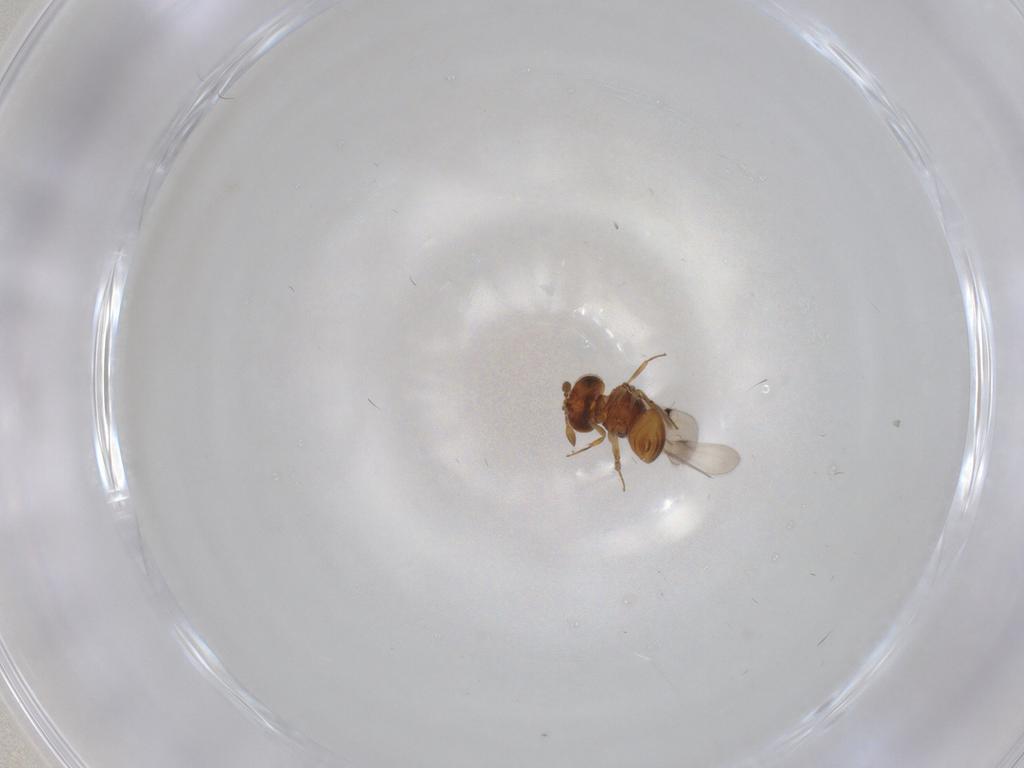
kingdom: Animalia
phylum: Arthropoda
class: Insecta
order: Hymenoptera
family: Scelionidae
